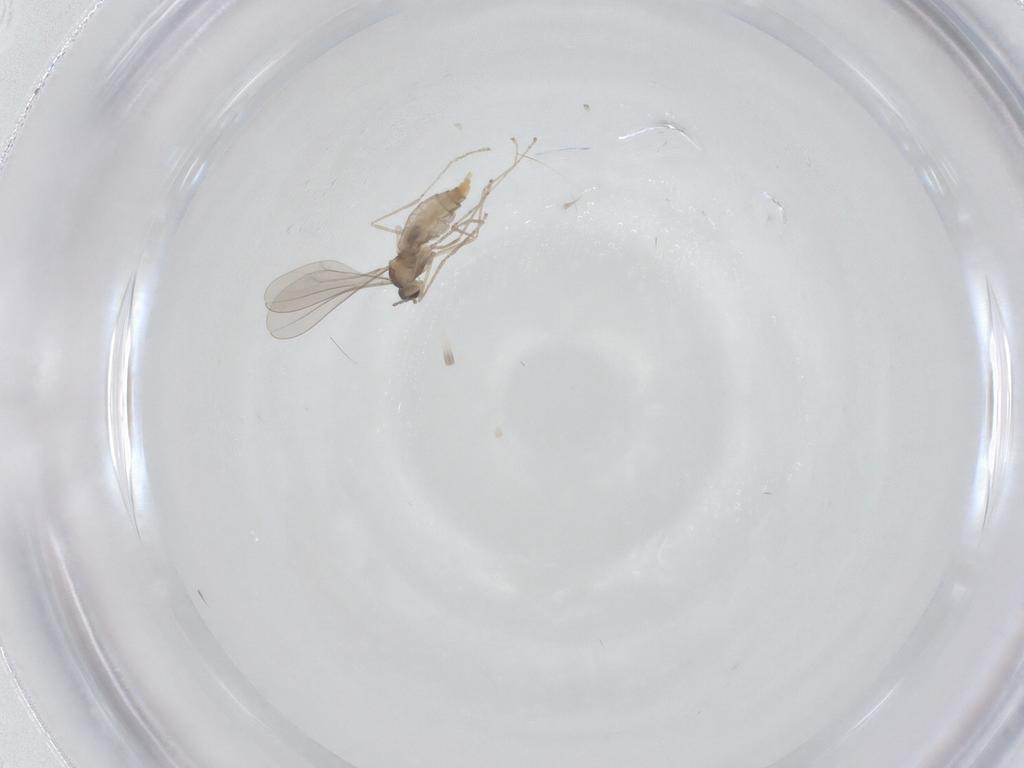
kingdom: Animalia
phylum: Arthropoda
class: Insecta
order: Diptera
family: Cecidomyiidae
